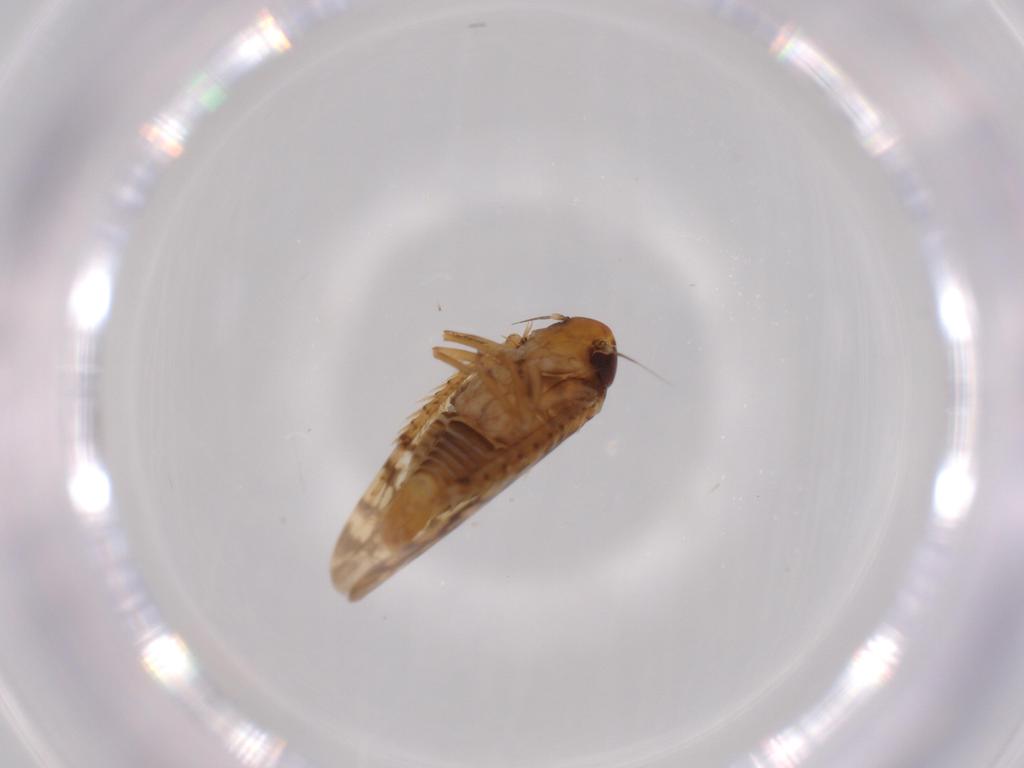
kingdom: Animalia
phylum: Arthropoda
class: Insecta
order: Hemiptera
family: Cicadellidae
